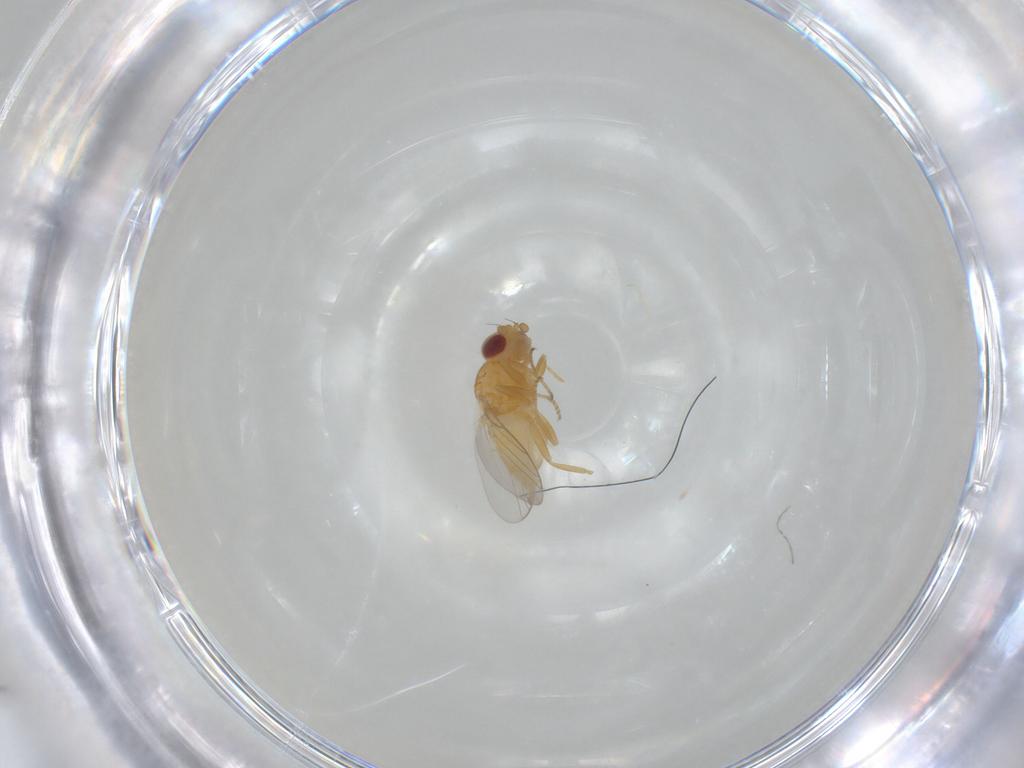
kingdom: Animalia
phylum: Arthropoda
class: Insecta
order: Diptera
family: Chloropidae
